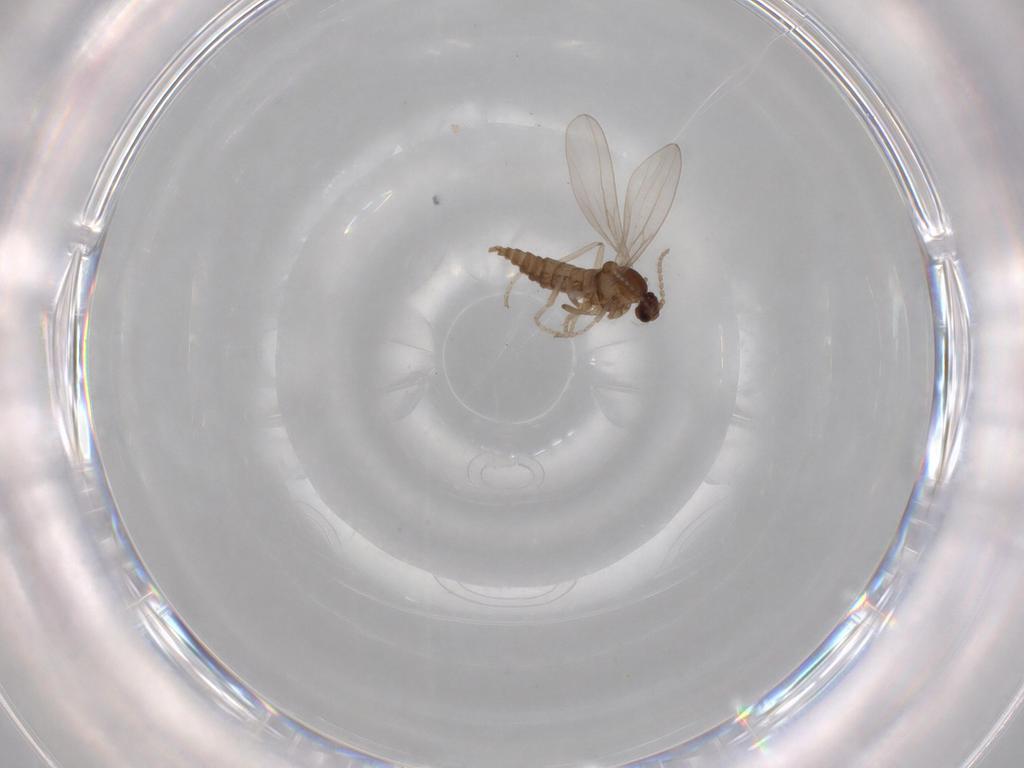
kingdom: Animalia
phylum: Arthropoda
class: Insecta
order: Diptera
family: Cecidomyiidae
